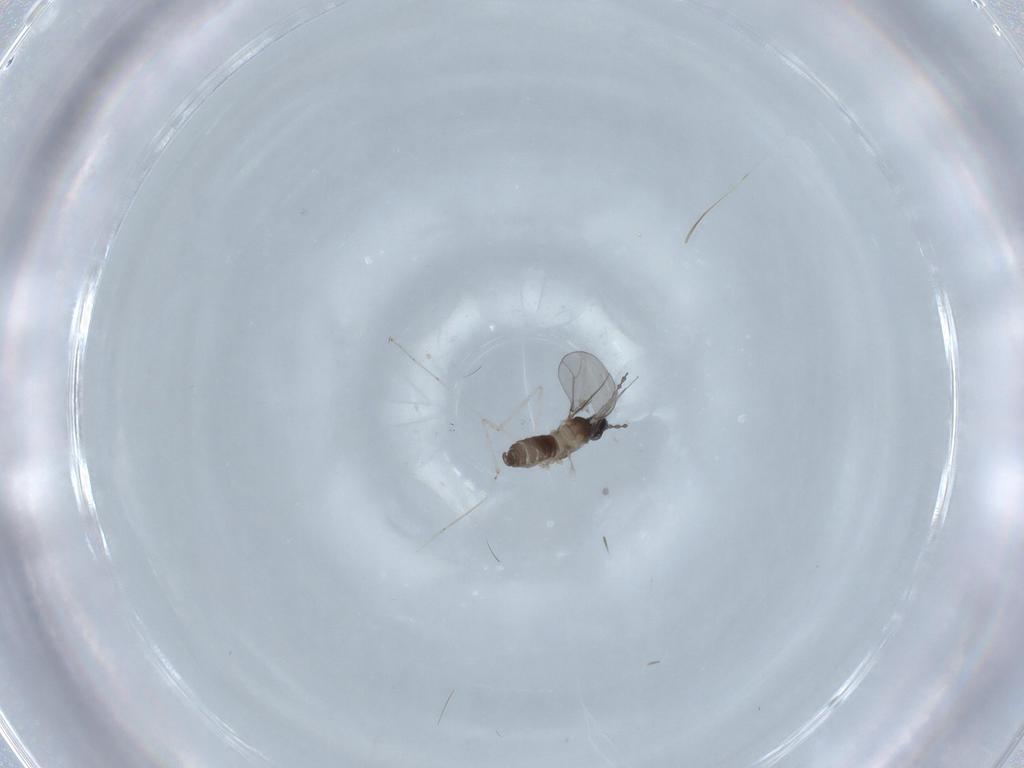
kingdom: Animalia
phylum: Arthropoda
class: Insecta
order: Diptera
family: Cecidomyiidae
